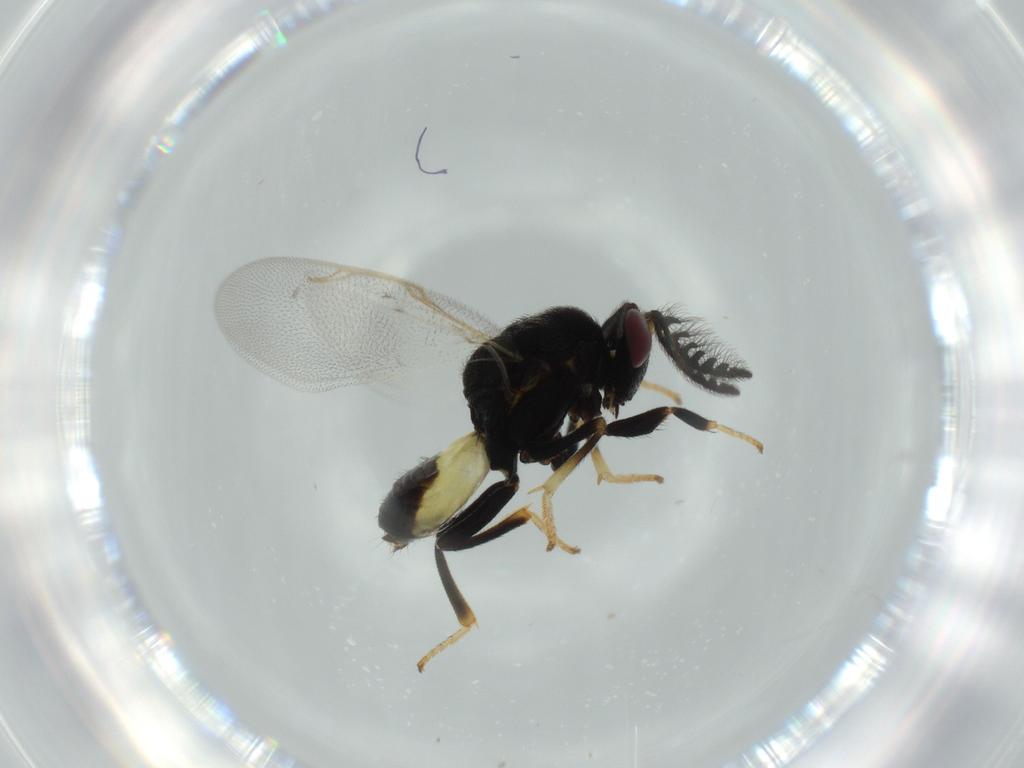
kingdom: Animalia
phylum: Arthropoda
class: Insecta
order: Hymenoptera
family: Tanaostigmatidae
